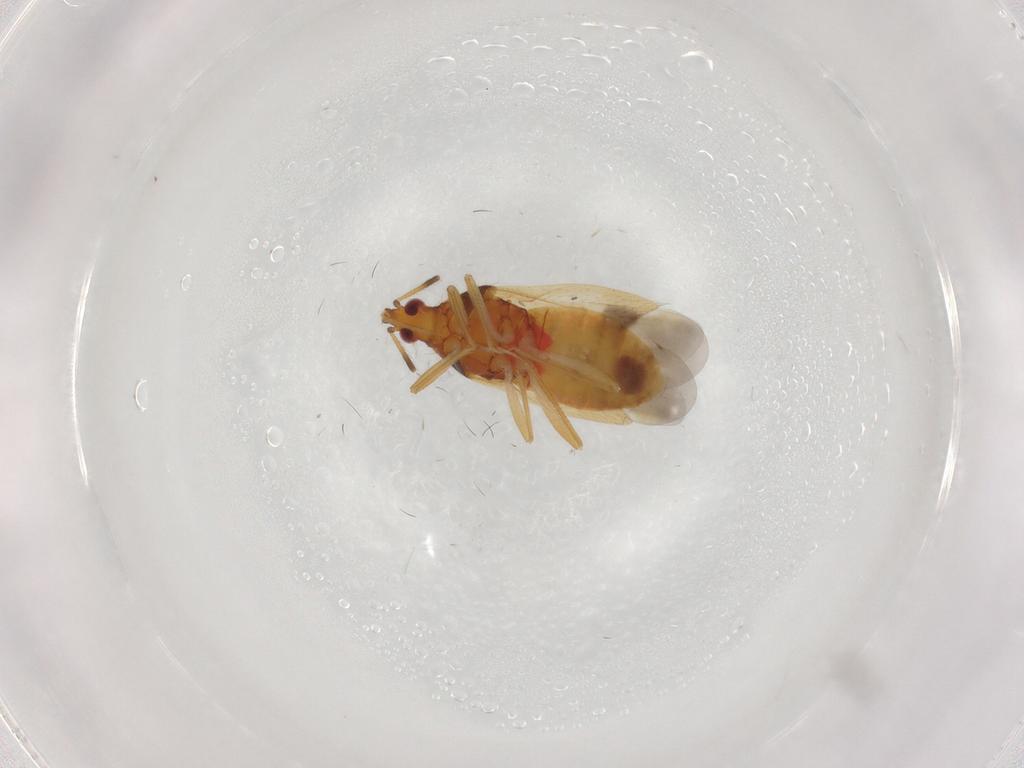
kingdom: Animalia
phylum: Arthropoda
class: Insecta
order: Hemiptera
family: Anthocoridae
